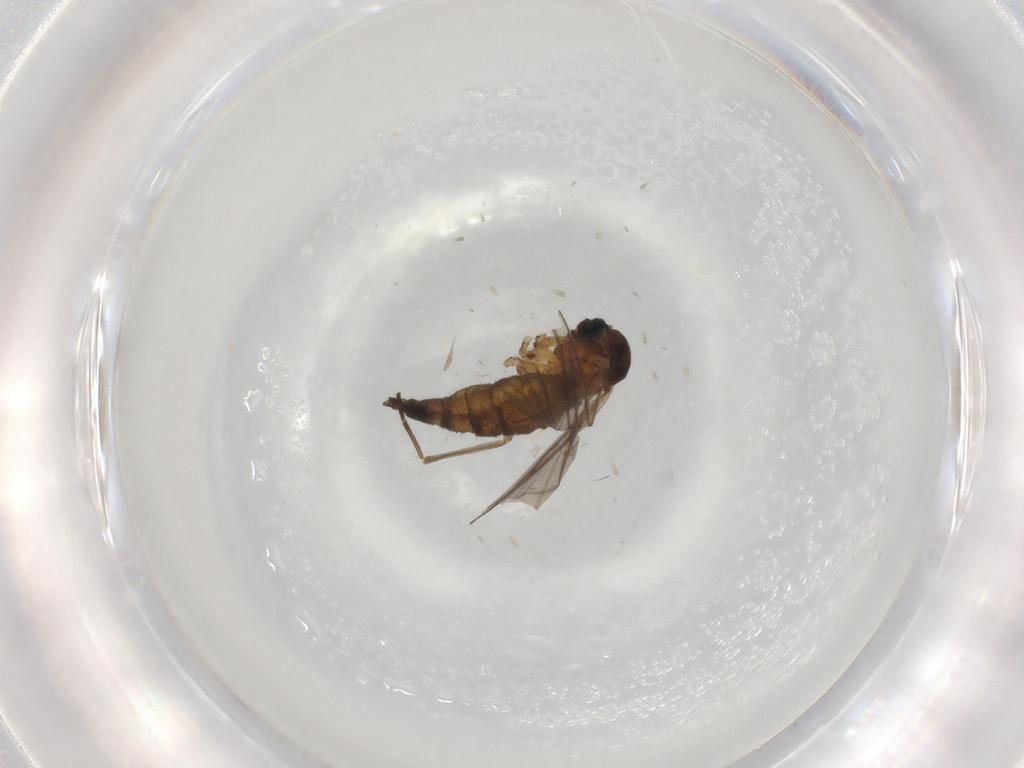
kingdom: Animalia
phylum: Arthropoda
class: Insecta
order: Diptera
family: Sciaridae
